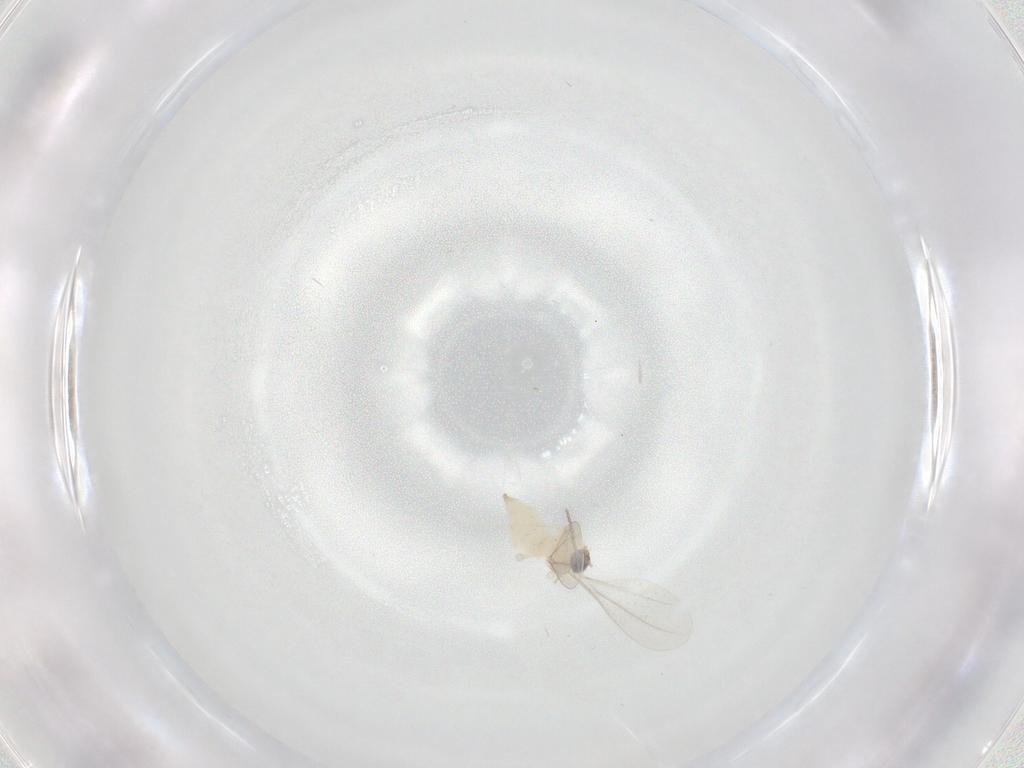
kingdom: Animalia
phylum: Arthropoda
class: Insecta
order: Diptera
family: Cecidomyiidae
